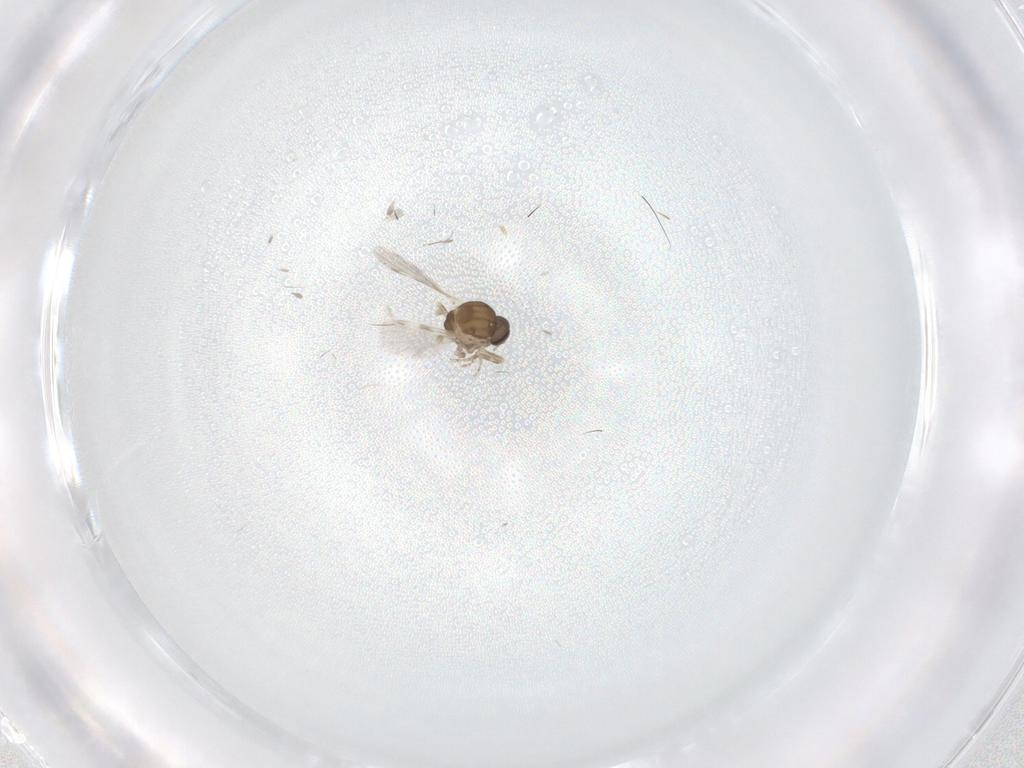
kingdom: Animalia
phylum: Arthropoda
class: Insecta
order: Diptera
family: Ceratopogonidae
